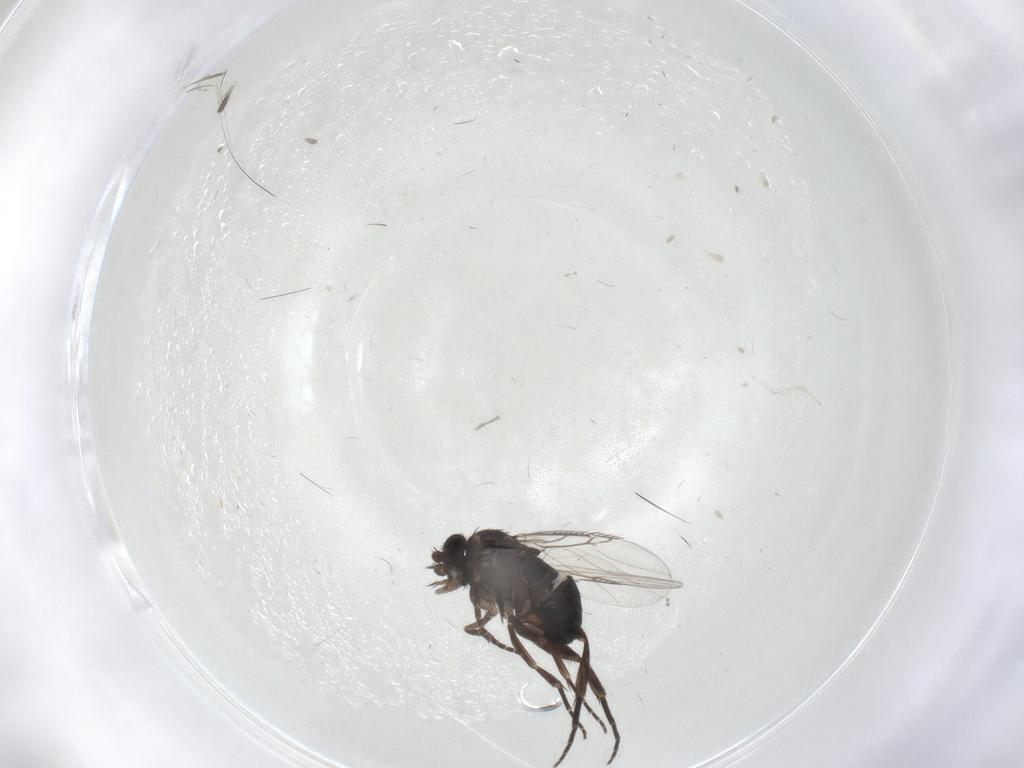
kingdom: Animalia
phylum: Arthropoda
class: Insecta
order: Diptera
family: Phoridae
